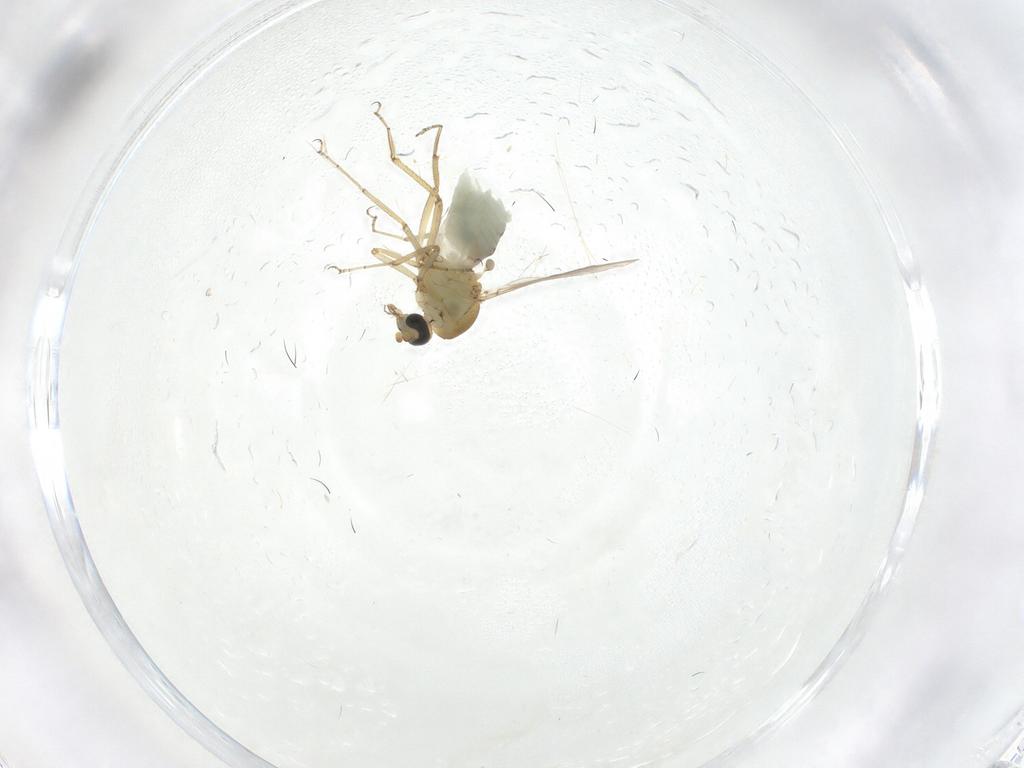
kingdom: Animalia
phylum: Arthropoda
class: Insecta
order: Diptera
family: Ceratopogonidae
